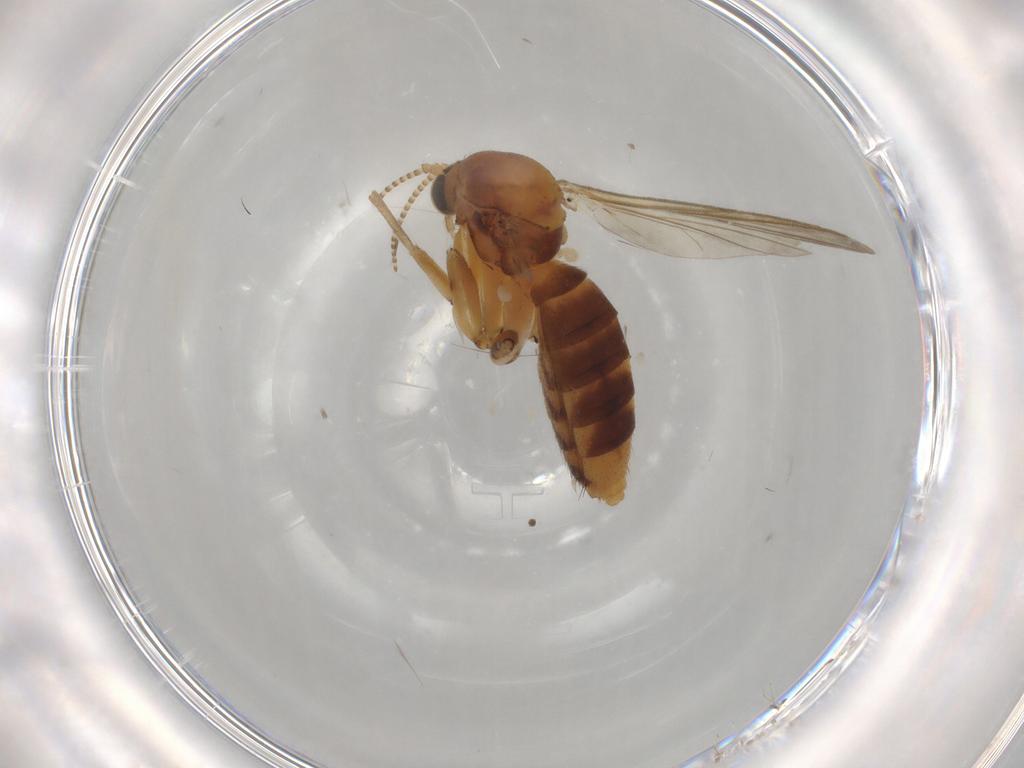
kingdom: Animalia
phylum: Arthropoda
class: Insecta
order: Diptera
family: Mycetophilidae
